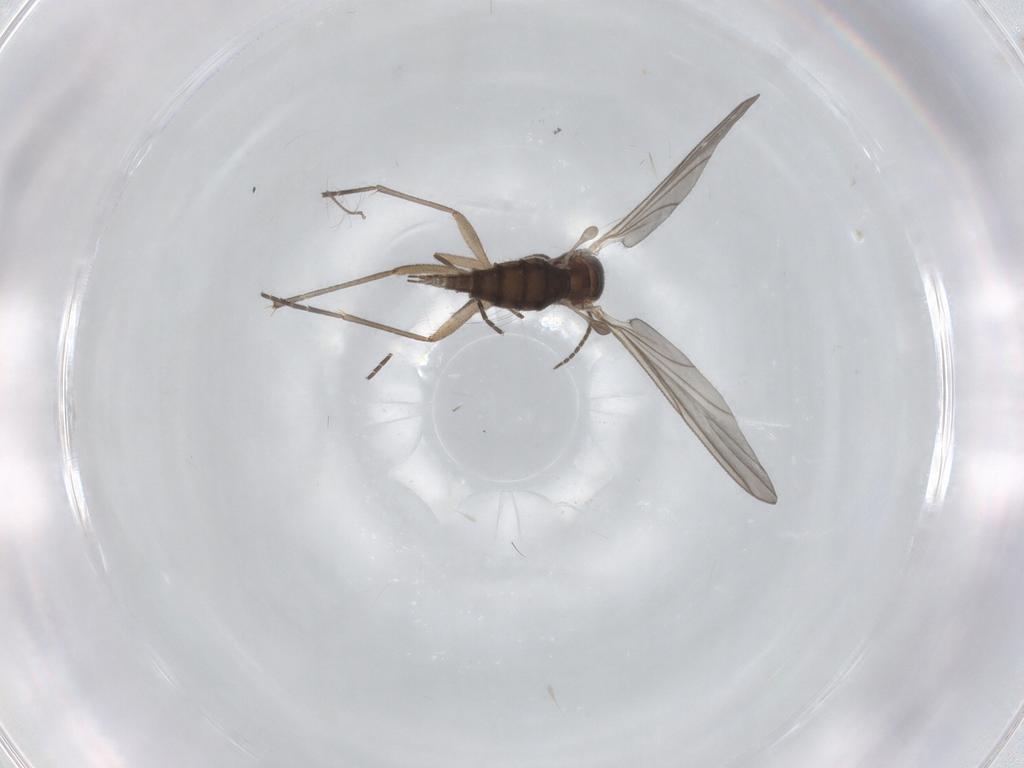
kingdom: Animalia
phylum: Arthropoda
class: Insecta
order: Diptera
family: Sciaridae
